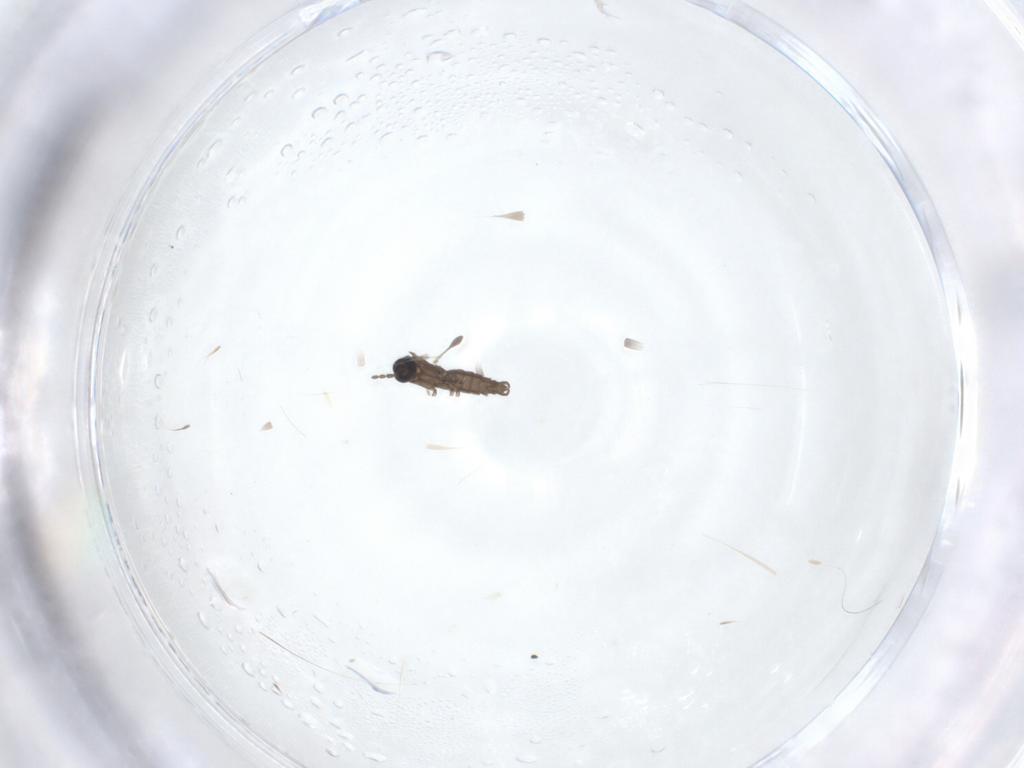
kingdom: Animalia
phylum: Arthropoda
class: Insecta
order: Diptera
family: Sciaridae
